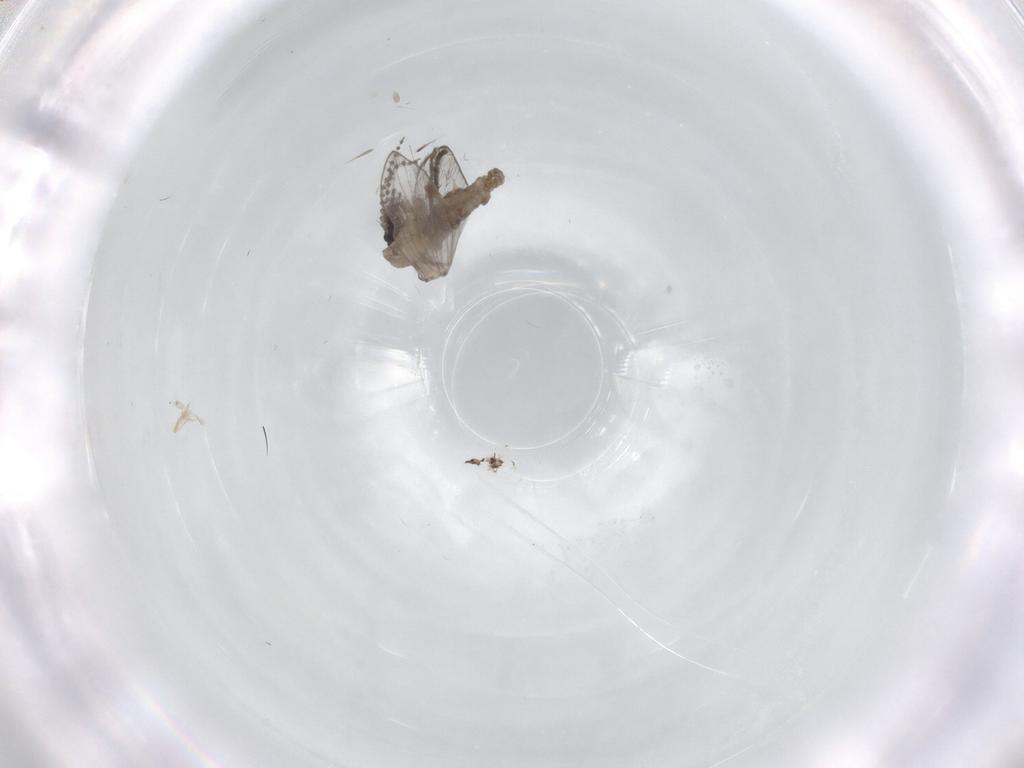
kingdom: Animalia
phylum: Arthropoda
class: Insecta
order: Diptera
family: Psychodidae
